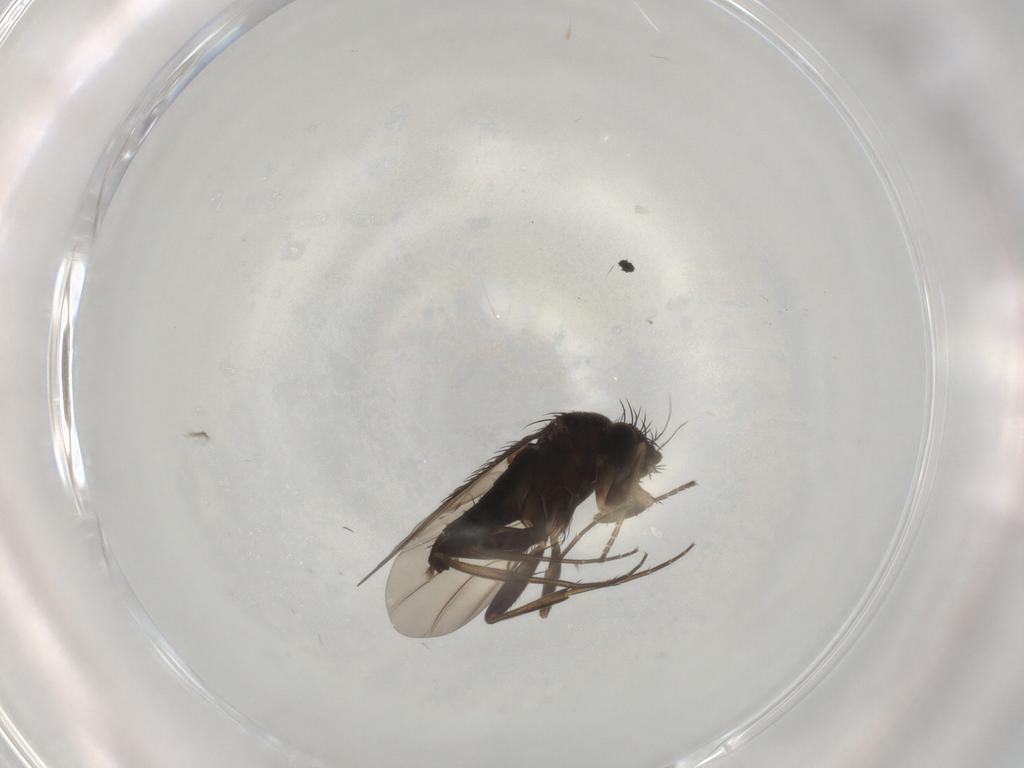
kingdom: Animalia
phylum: Arthropoda
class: Insecta
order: Diptera
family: Phoridae
